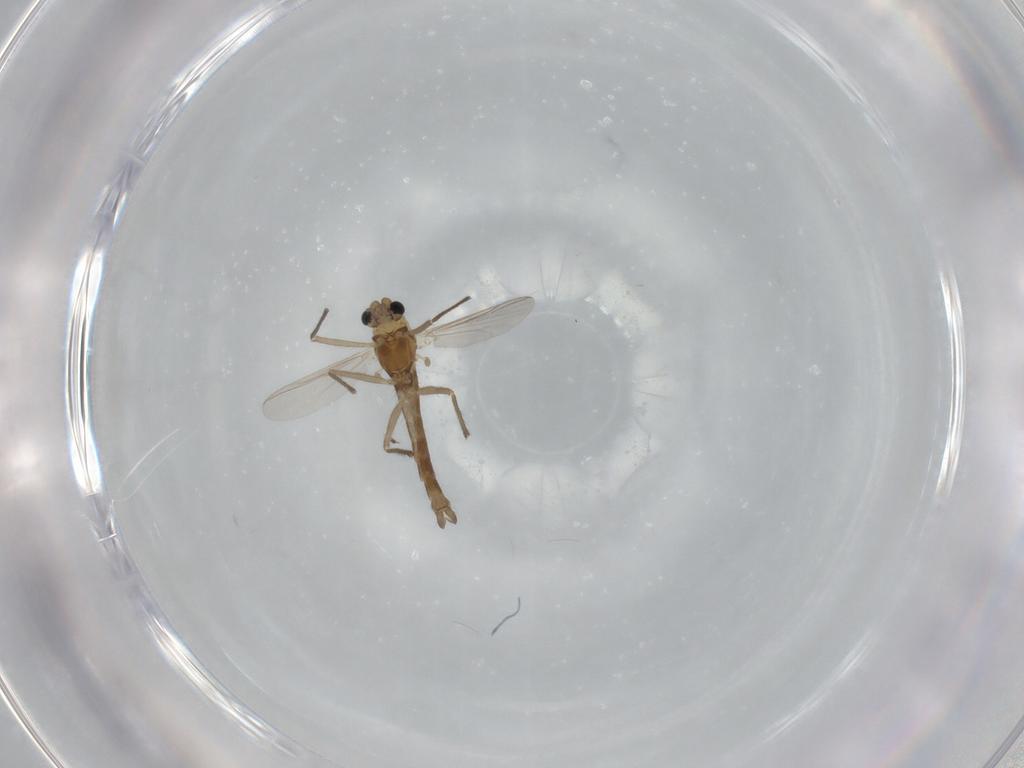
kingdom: Animalia
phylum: Arthropoda
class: Insecta
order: Diptera
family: Chironomidae
